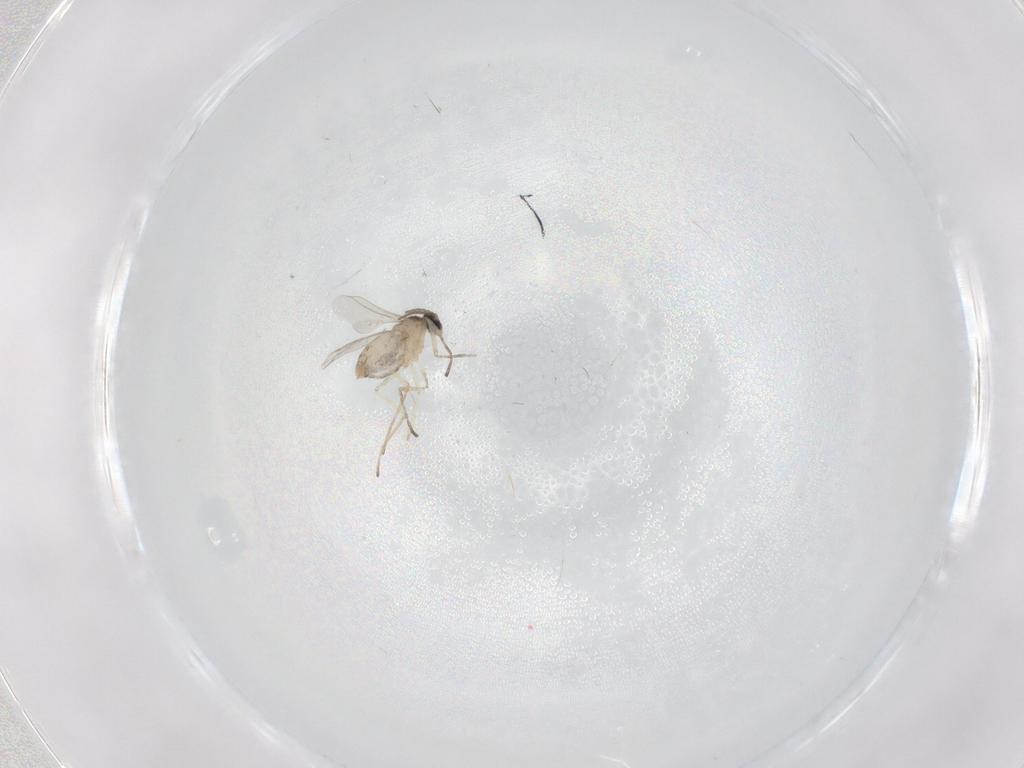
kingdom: Animalia
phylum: Arthropoda
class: Insecta
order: Diptera
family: Cecidomyiidae
